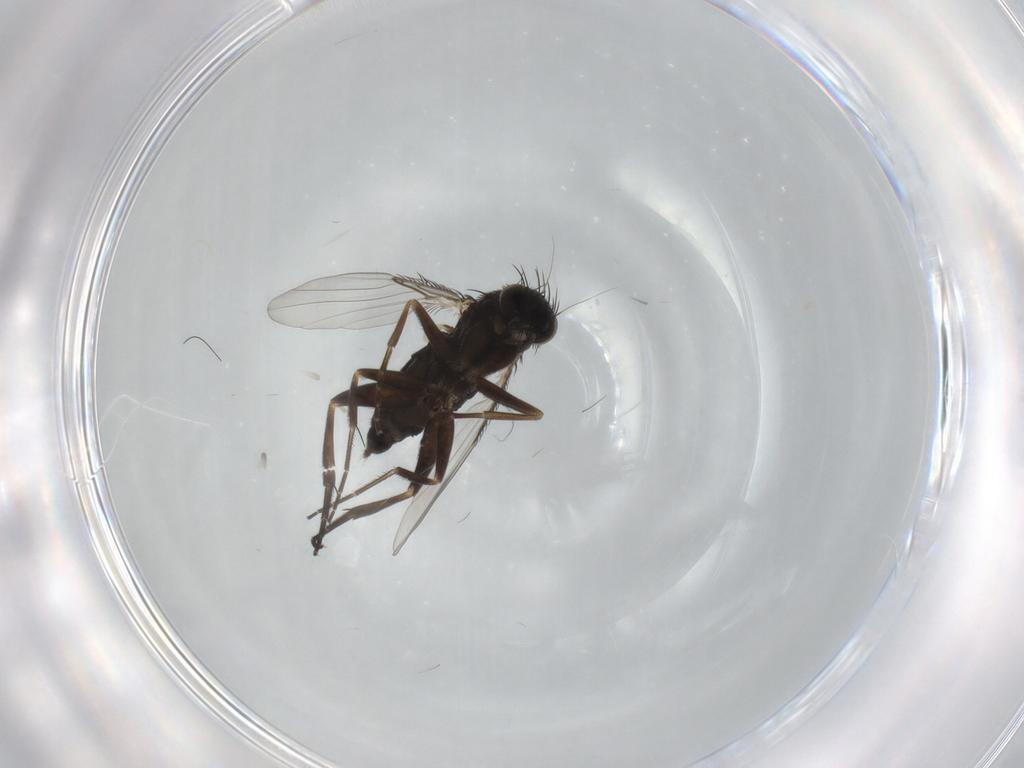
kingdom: Animalia
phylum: Arthropoda
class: Insecta
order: Diptera
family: Phoridae
